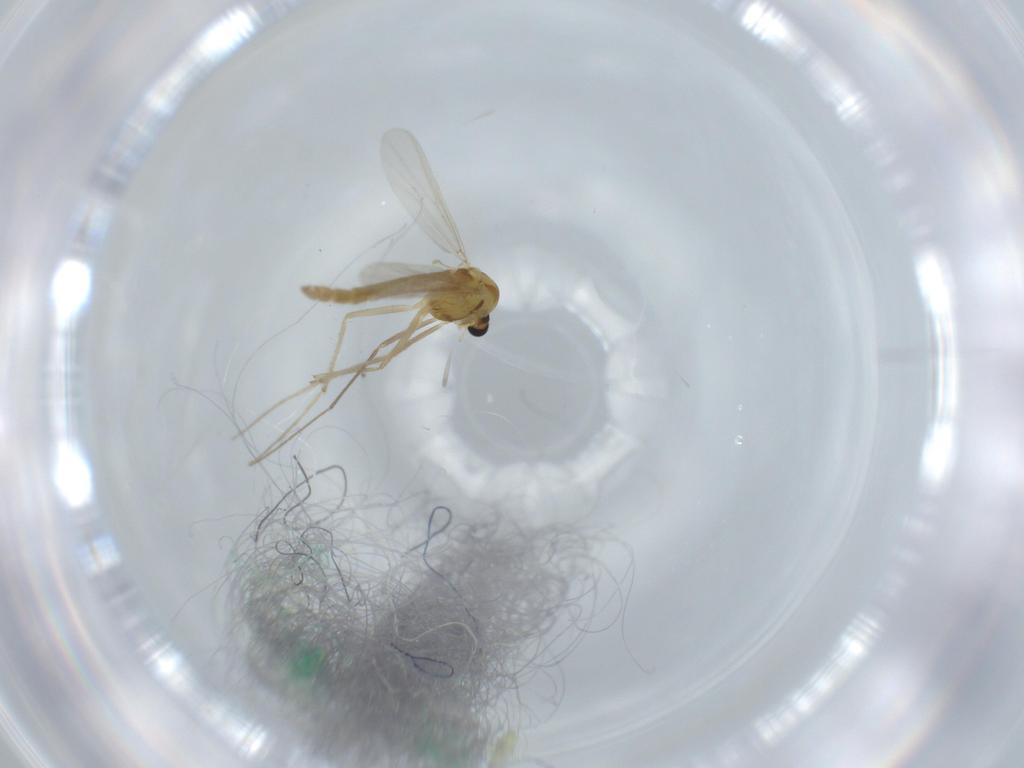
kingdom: Animalia
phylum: Arthropoda
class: Insecta
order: Diptera
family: Chironomidae
